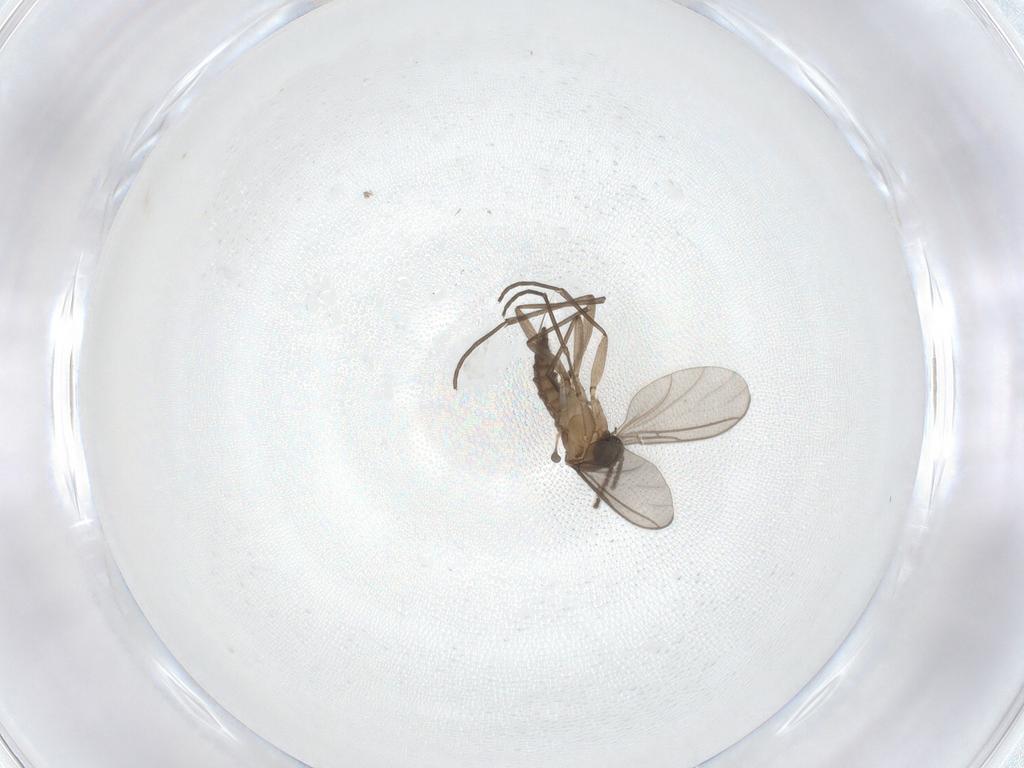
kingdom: Animalia
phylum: Arthropoda
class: Insecta
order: Diptera
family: Sciaridae
